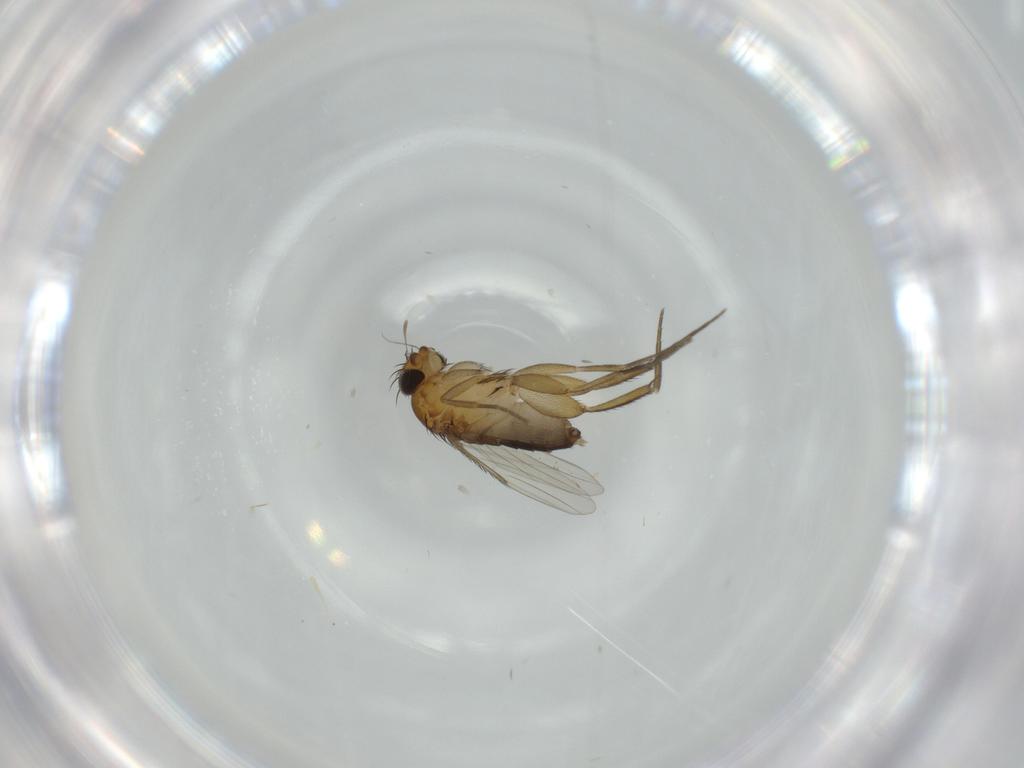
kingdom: Animalia
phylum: Arthropoda
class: Insecta
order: Diptera
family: Phoridae
